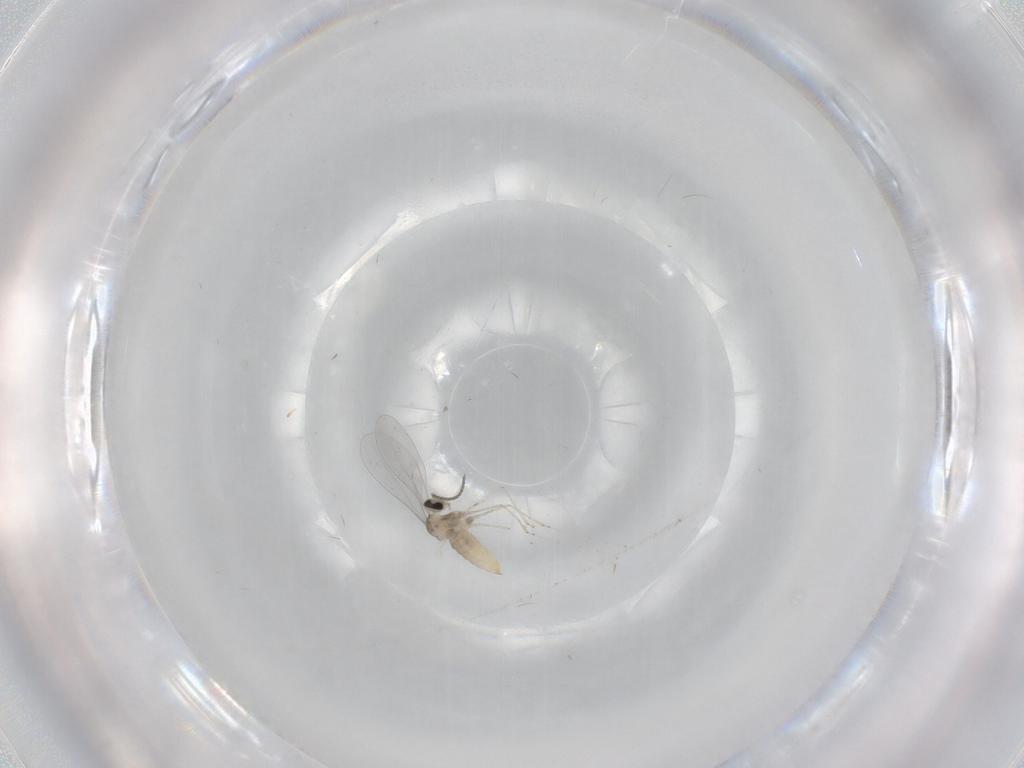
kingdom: Animalia
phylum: Arthropoda
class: Insecta
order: Diptera
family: Cecidomyiidae
